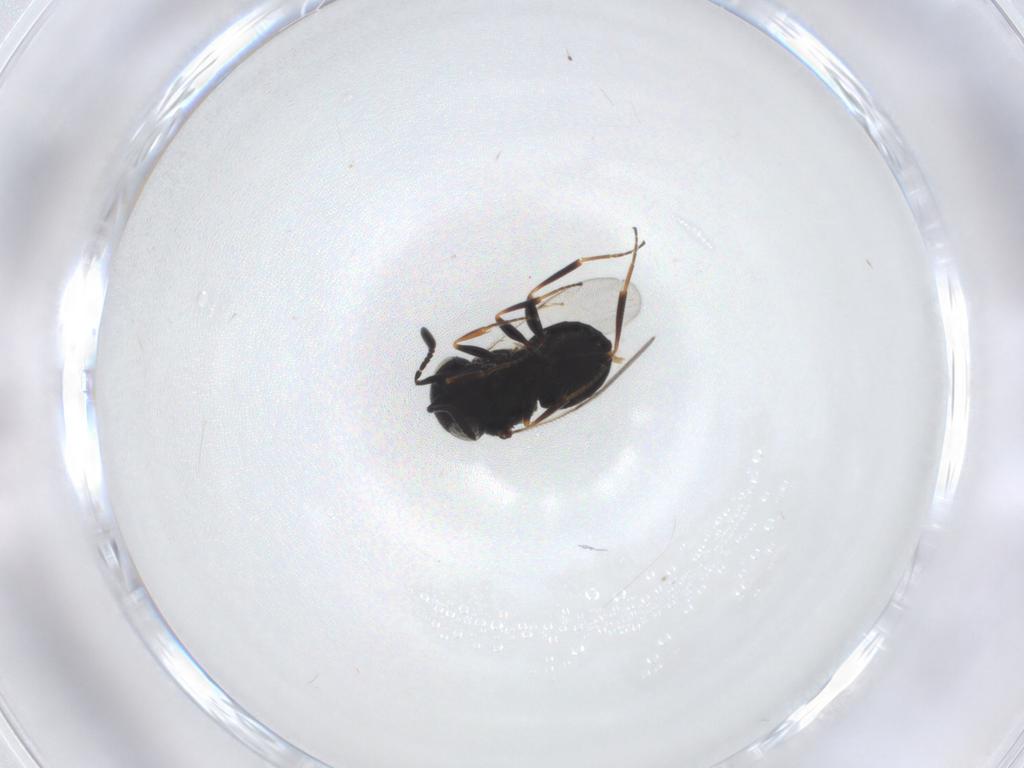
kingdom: Animalia
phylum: Arthropoda
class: Insecta
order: Hymenoptera
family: Scelionidae
